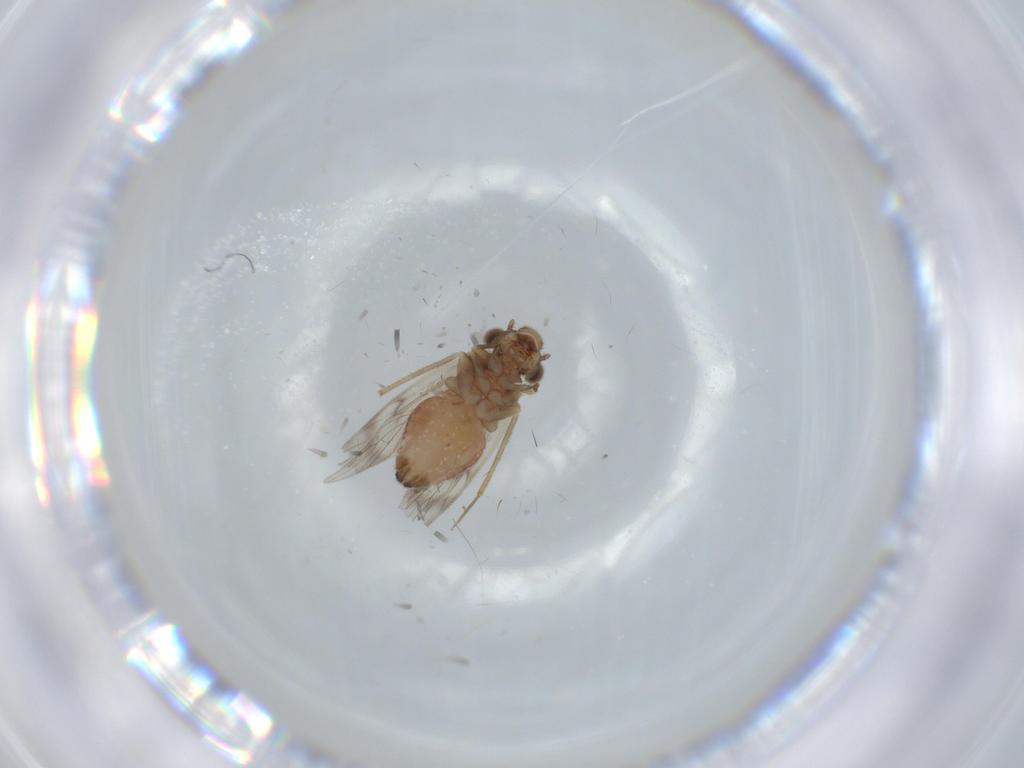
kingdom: Animalia
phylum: Arthropoda
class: Insecta
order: Psocodea
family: Lepidopsocidae
